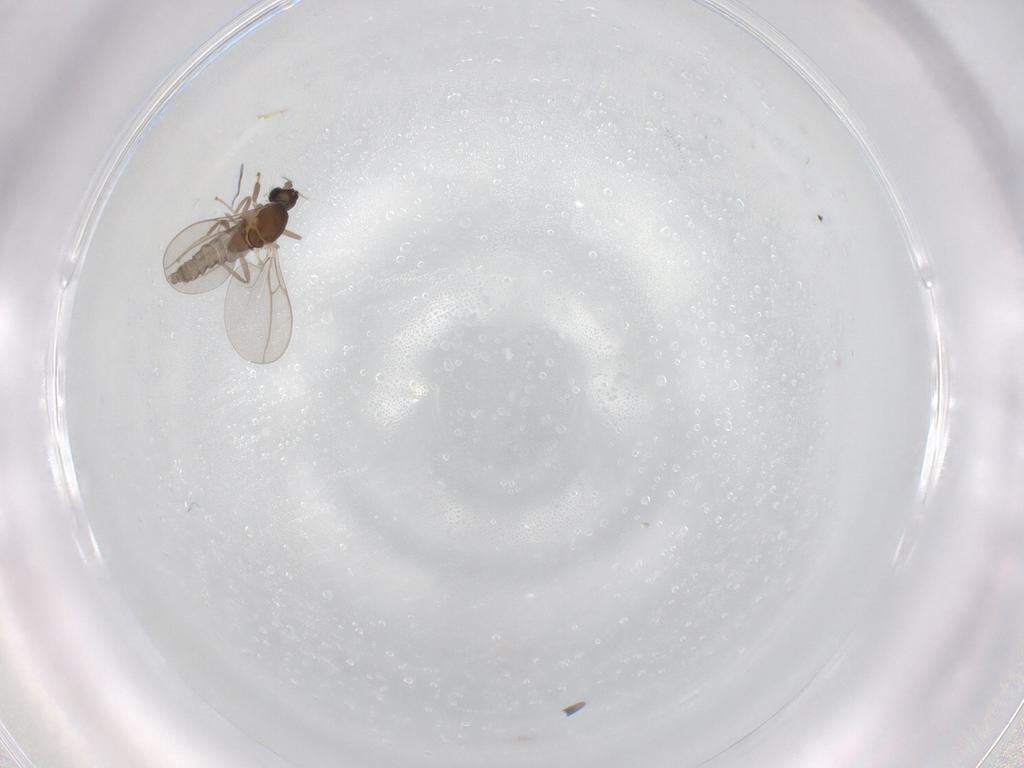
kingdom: Animalia
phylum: Arthropoda
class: Insecta
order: Diptera
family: Cecidomyiidae
